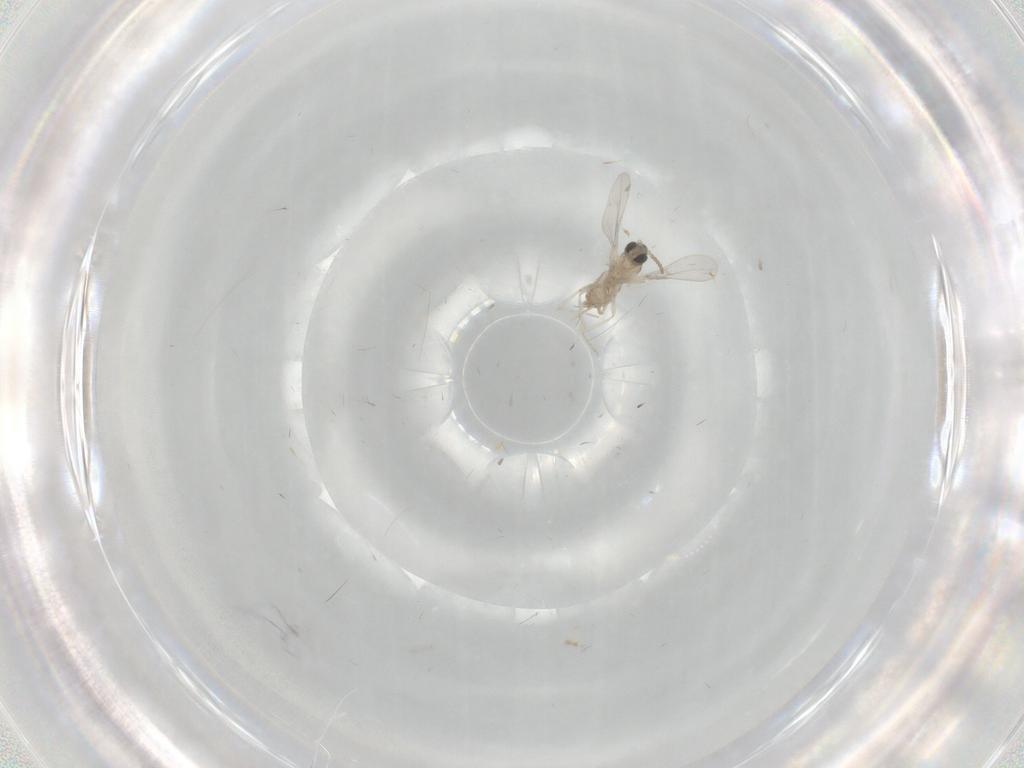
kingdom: Animalia
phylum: Arthropoda
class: Insecta
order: Diptera
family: Cecidomyiidae
